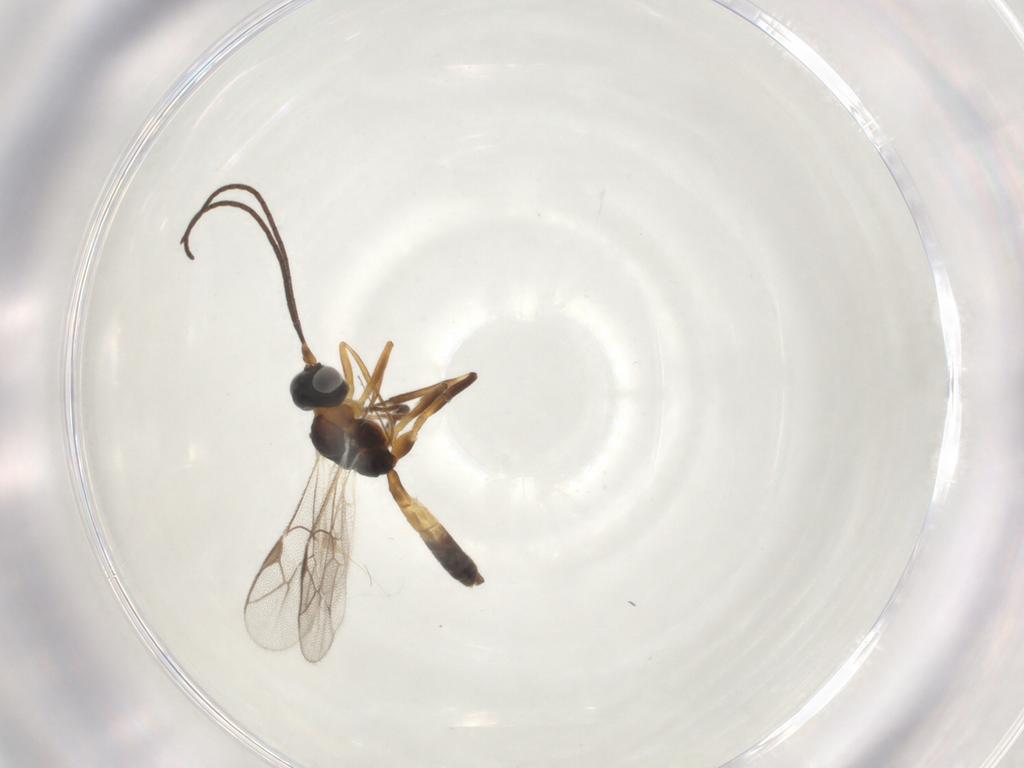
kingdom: Animalia
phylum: Arthropoda
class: Insecta
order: Hymenoptera
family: Ichneumonidae
